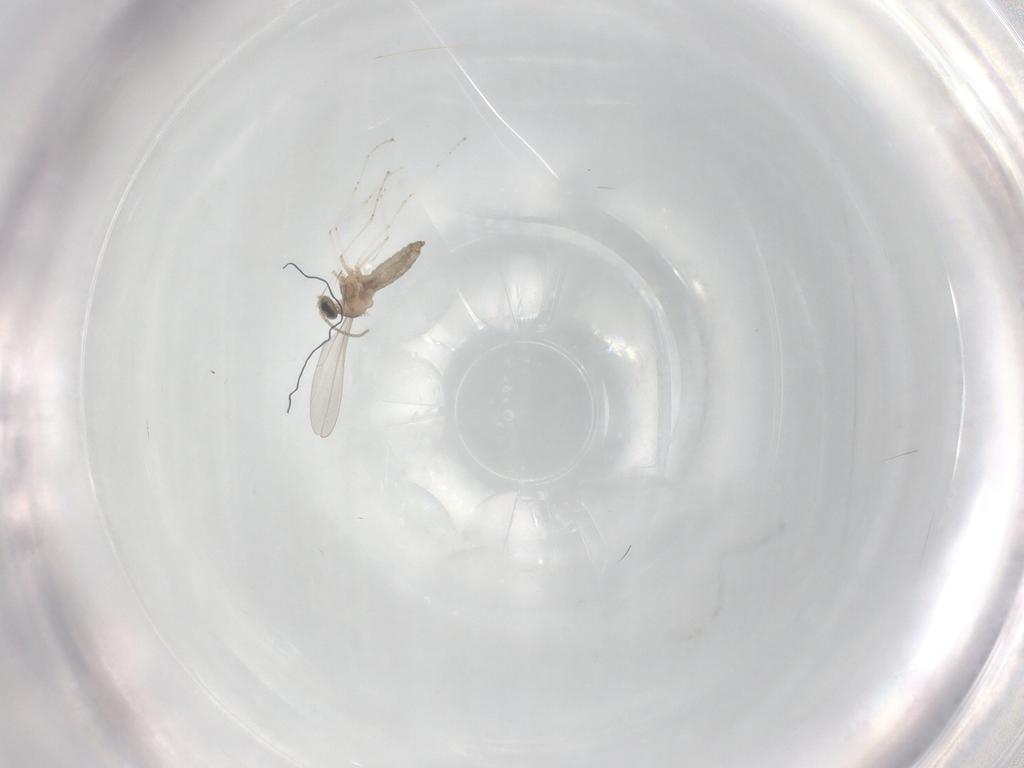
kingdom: Animalia
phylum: Arthropoda
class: Insecta
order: Diptera
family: Cecidomyiidae
